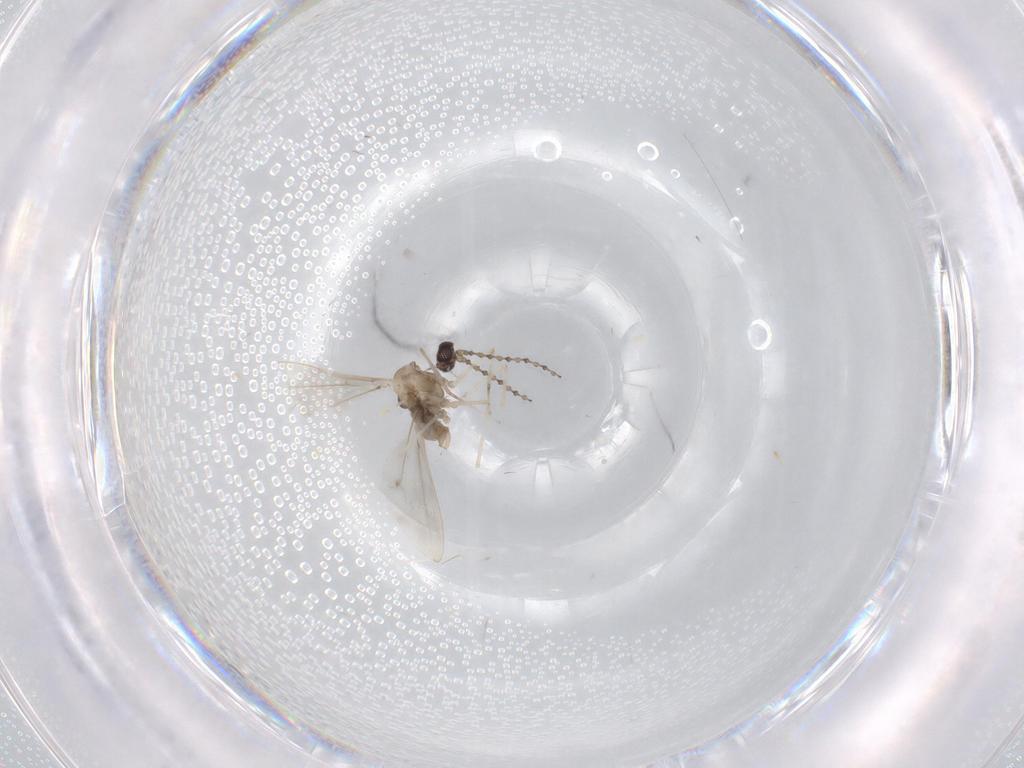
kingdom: Animalia
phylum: Arthropoda
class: Insecta
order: Diptera
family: Cecidomyiidae
